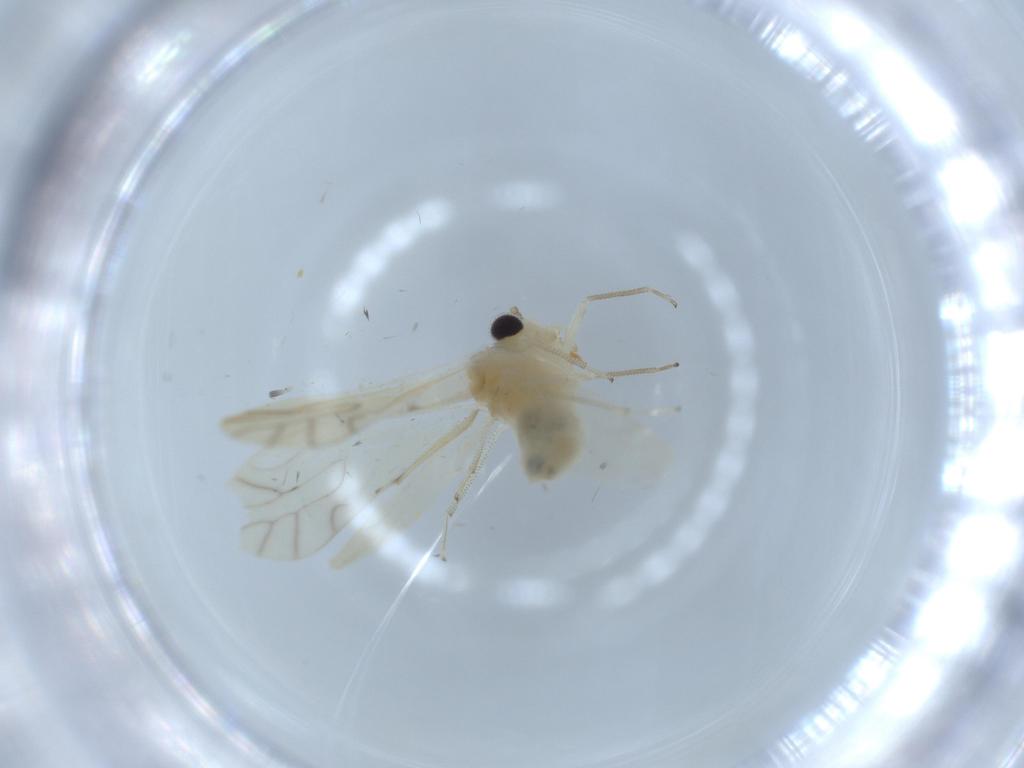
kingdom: Animalia
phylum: Arthropoda
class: Insecta
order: Psocodea
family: Caeciliusidae
